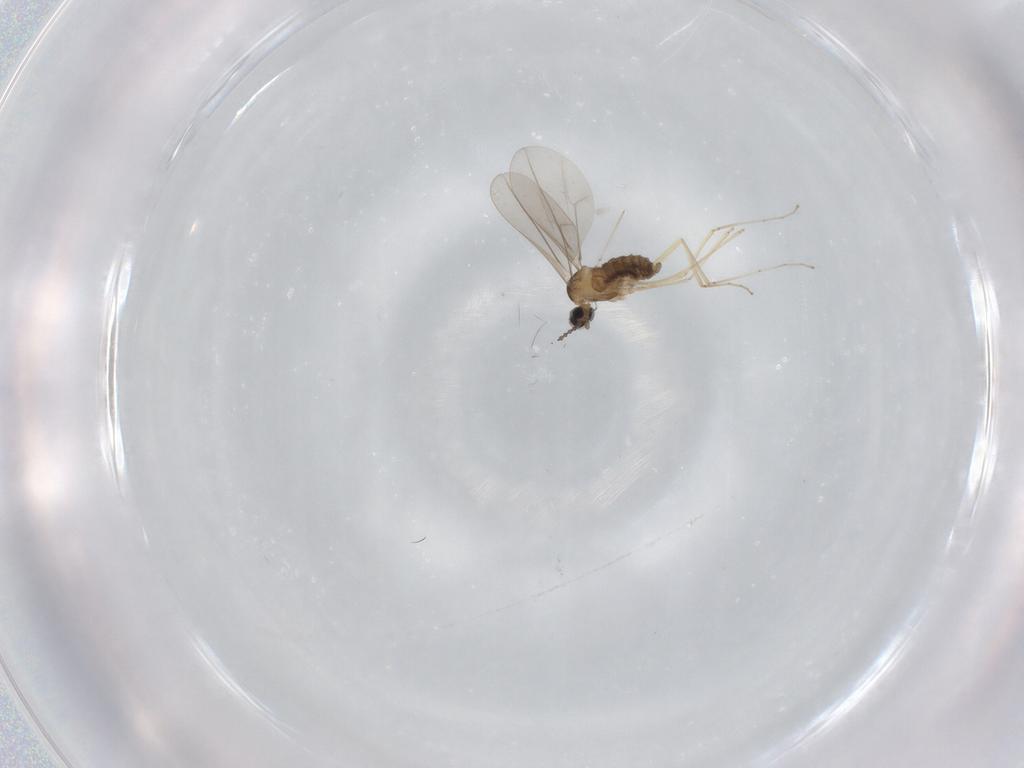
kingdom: Animalia
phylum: Arthropoda
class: Insecta
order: Diptera
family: Cecidomyiidae
